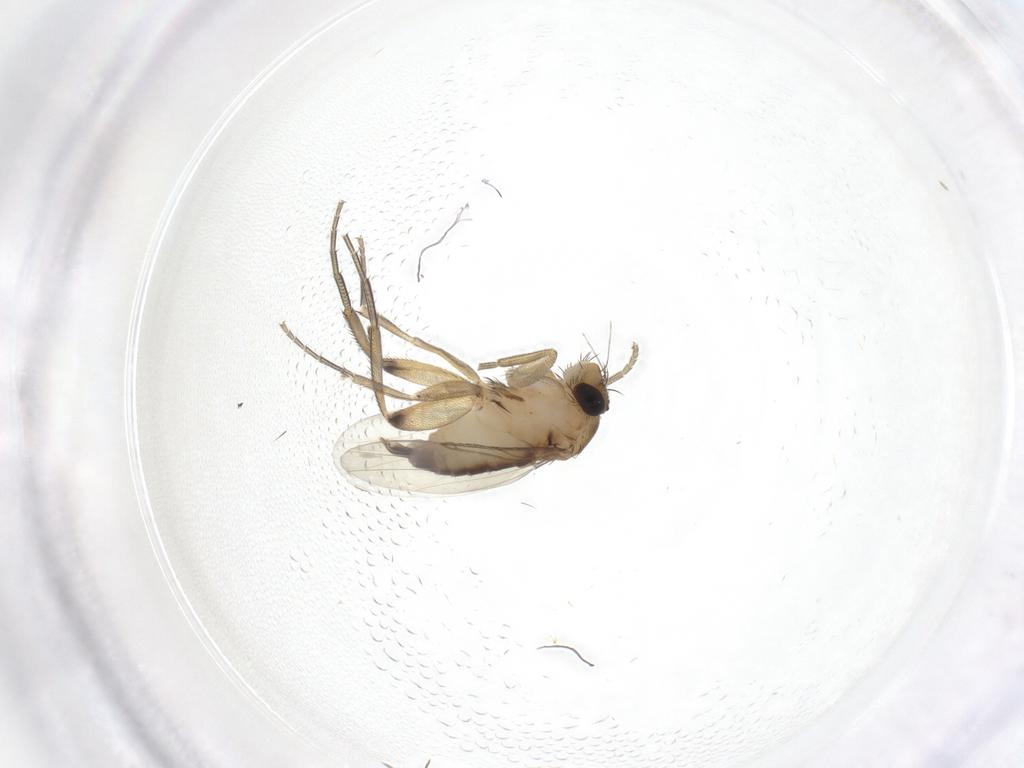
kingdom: Animalia
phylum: Arthropoda
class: Insecta
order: Diptera
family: Phoridae
